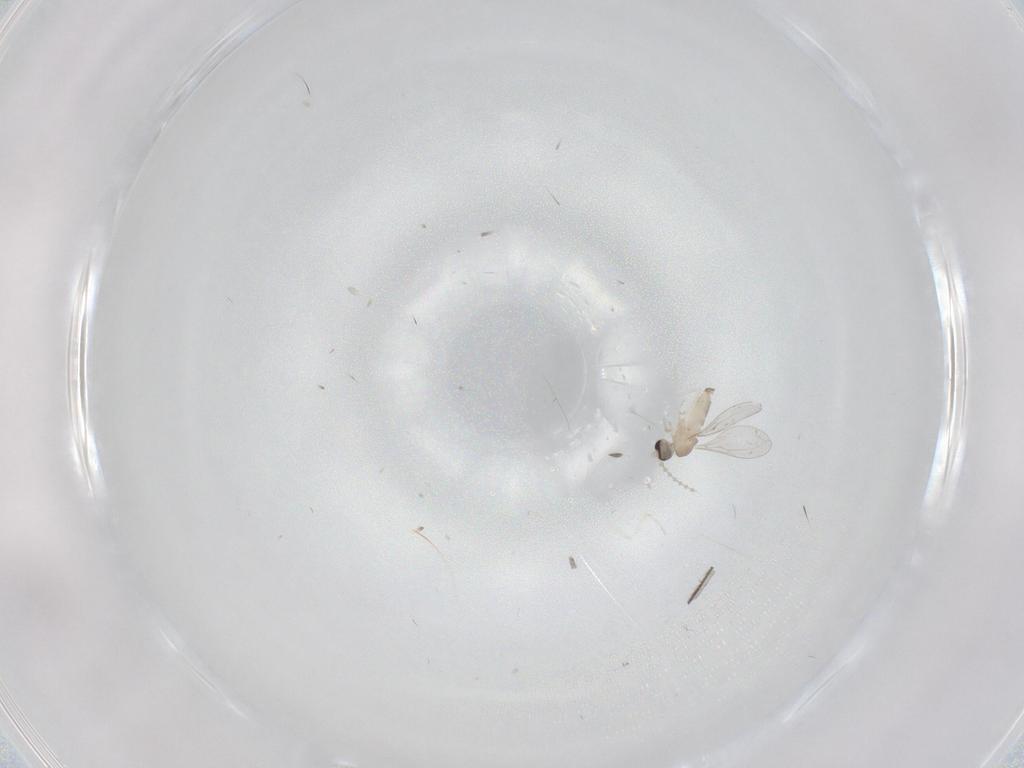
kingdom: Animalia
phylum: Arthropoda
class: Insecta
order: Diptera
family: Cecidomyiidae
